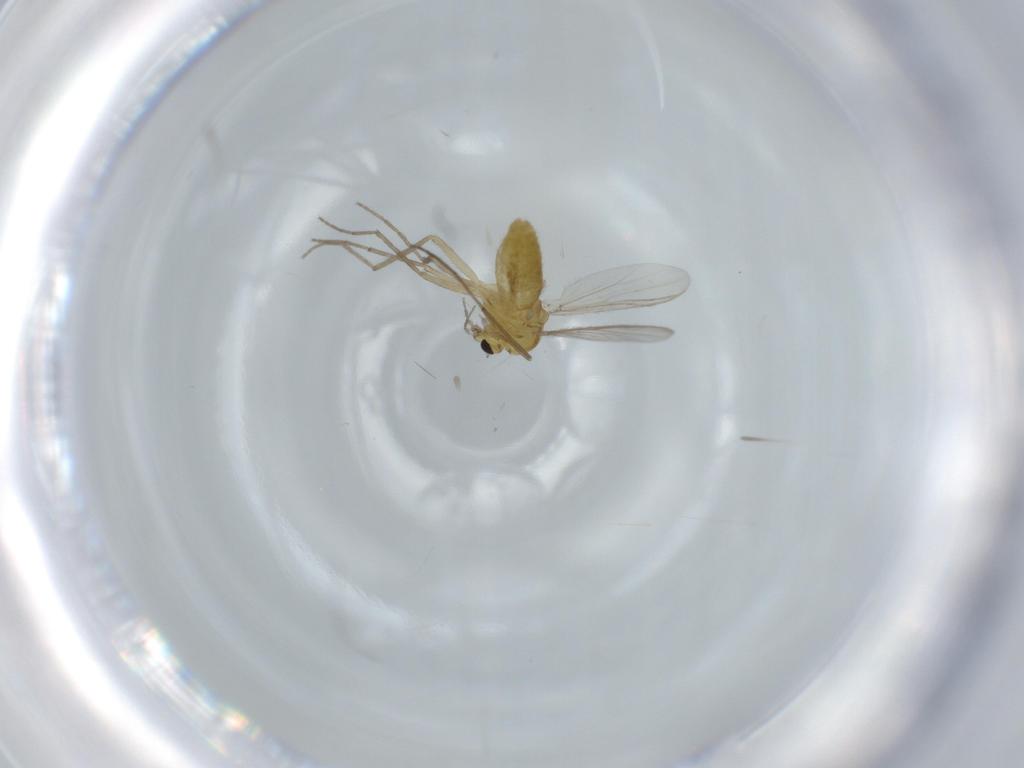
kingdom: Animalia
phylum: Arthropoda
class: Insecta
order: Diptera
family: Chironomidae
